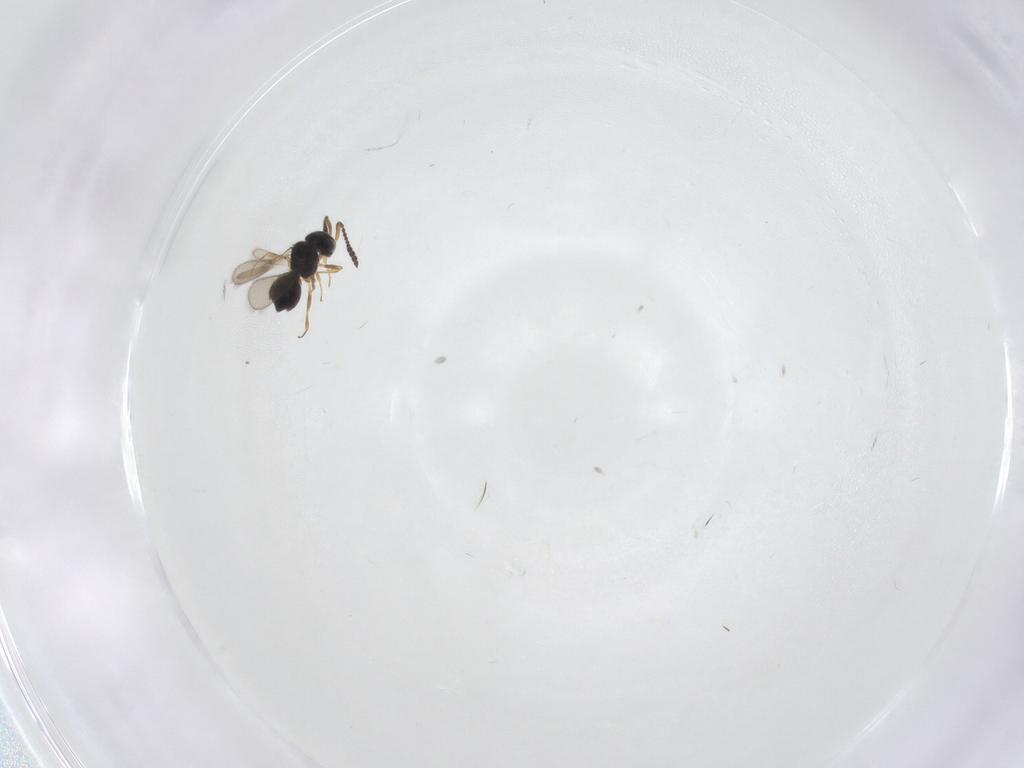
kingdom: Animalia
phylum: Arthropoda
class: Insecta
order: Hymenoptera
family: Scelionidae
